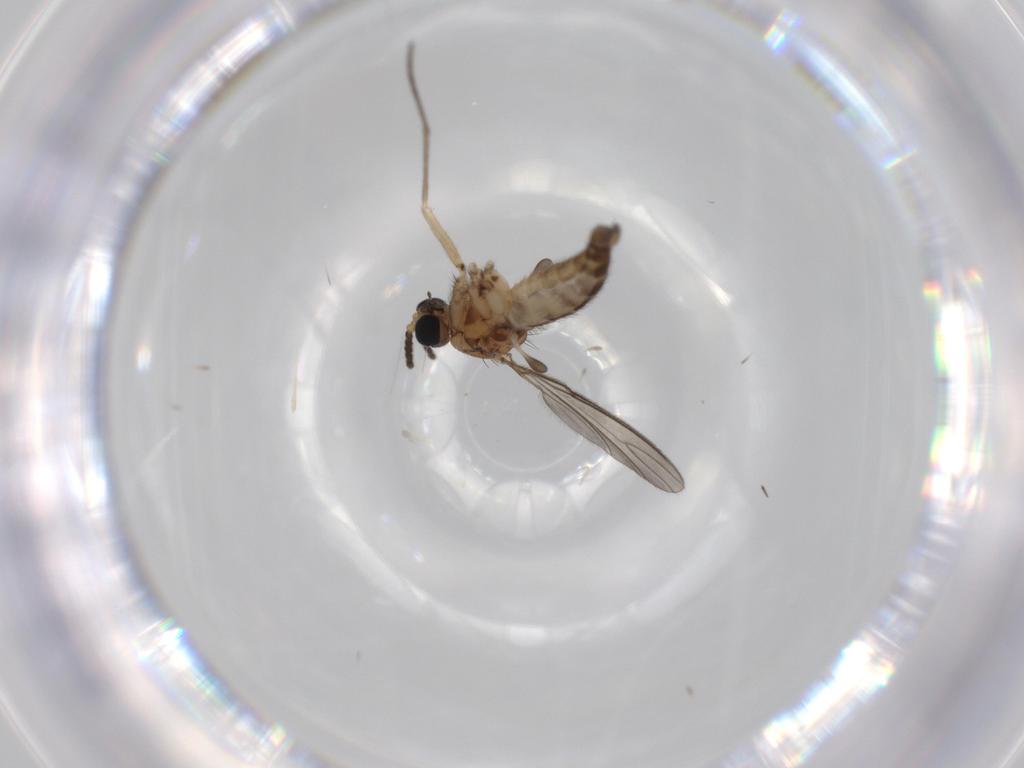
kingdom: Animalia
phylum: Arthropoda
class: Insecta
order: Diptera
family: Sciaridae
